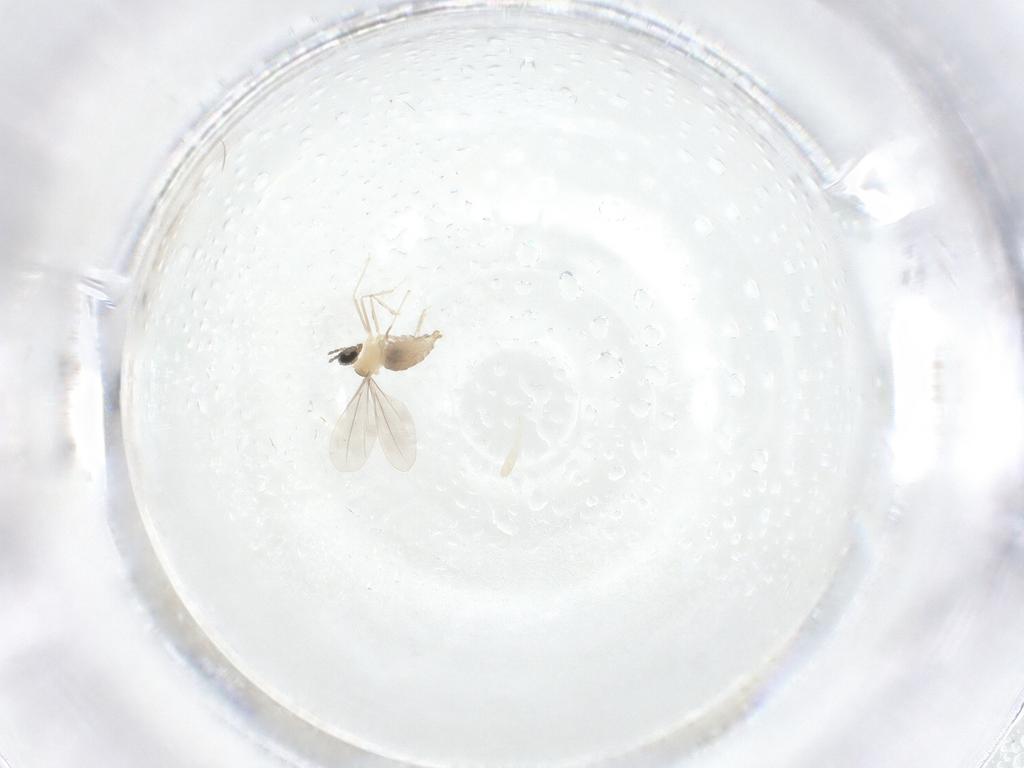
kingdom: Animalia
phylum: Arthropoda
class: Insecta
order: Diptera
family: Cecidomyiidae
